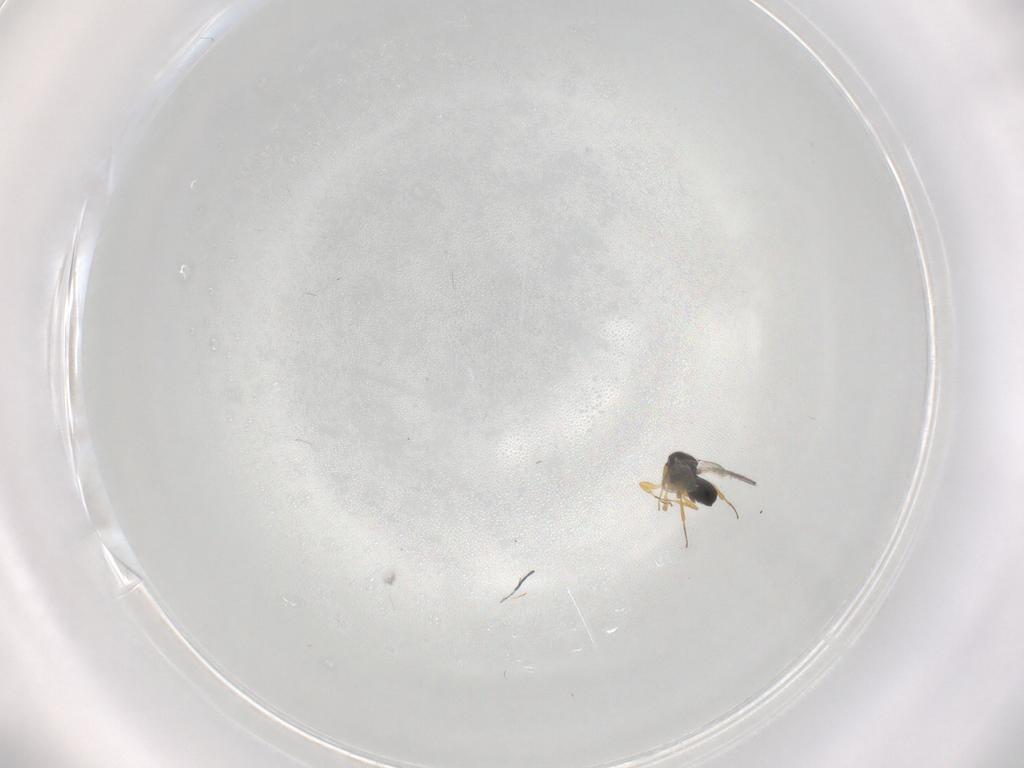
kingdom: Animalia
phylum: Arthropoda
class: Insecta
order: Hymenoptera
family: Scelionidae
